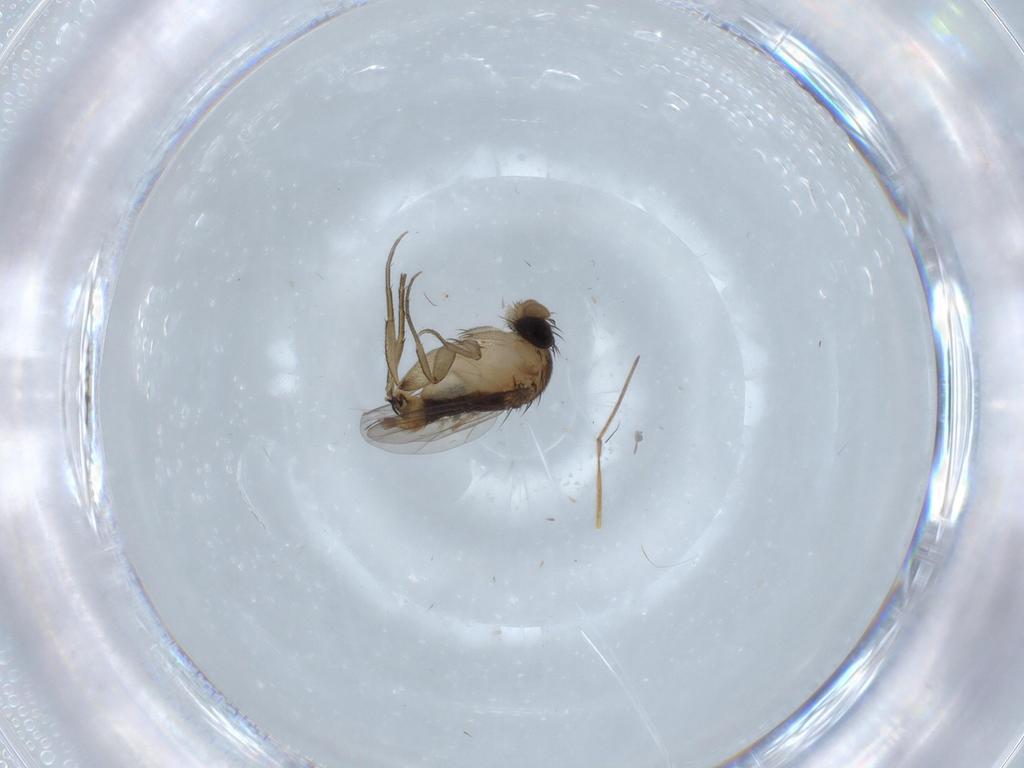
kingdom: Animalia
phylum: Arthropoda
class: Insecta
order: Diptera
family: Phoridae
